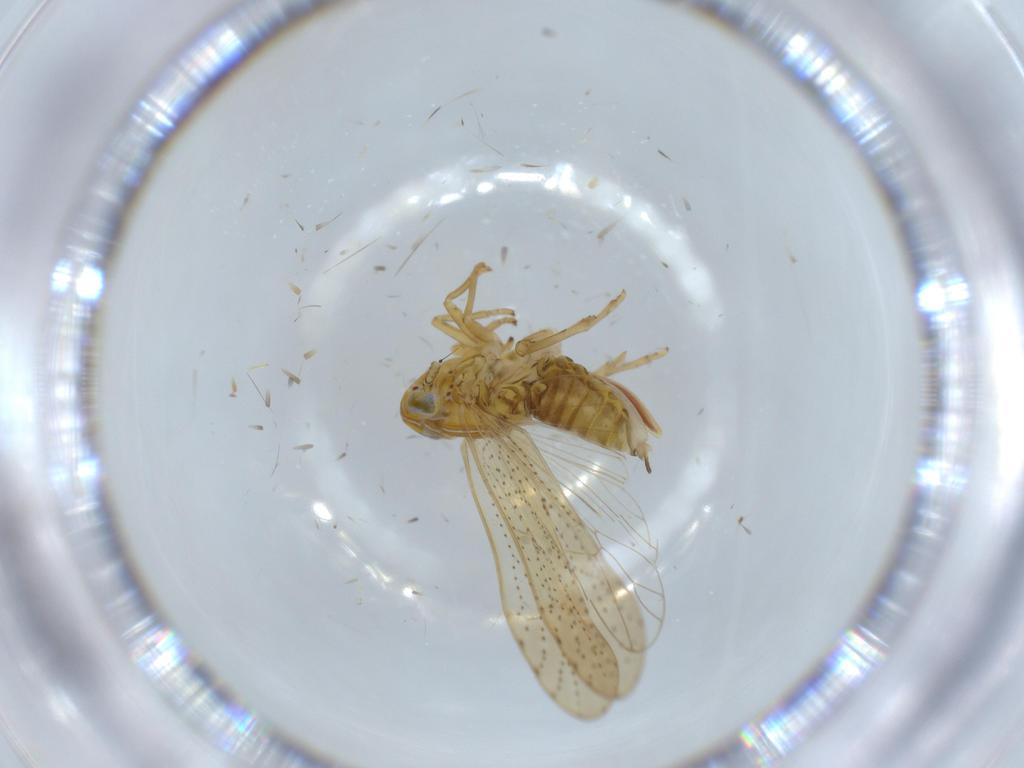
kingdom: Animalia
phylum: Arthropoda
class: Insecta
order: Hemiptera
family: Delphacidae
